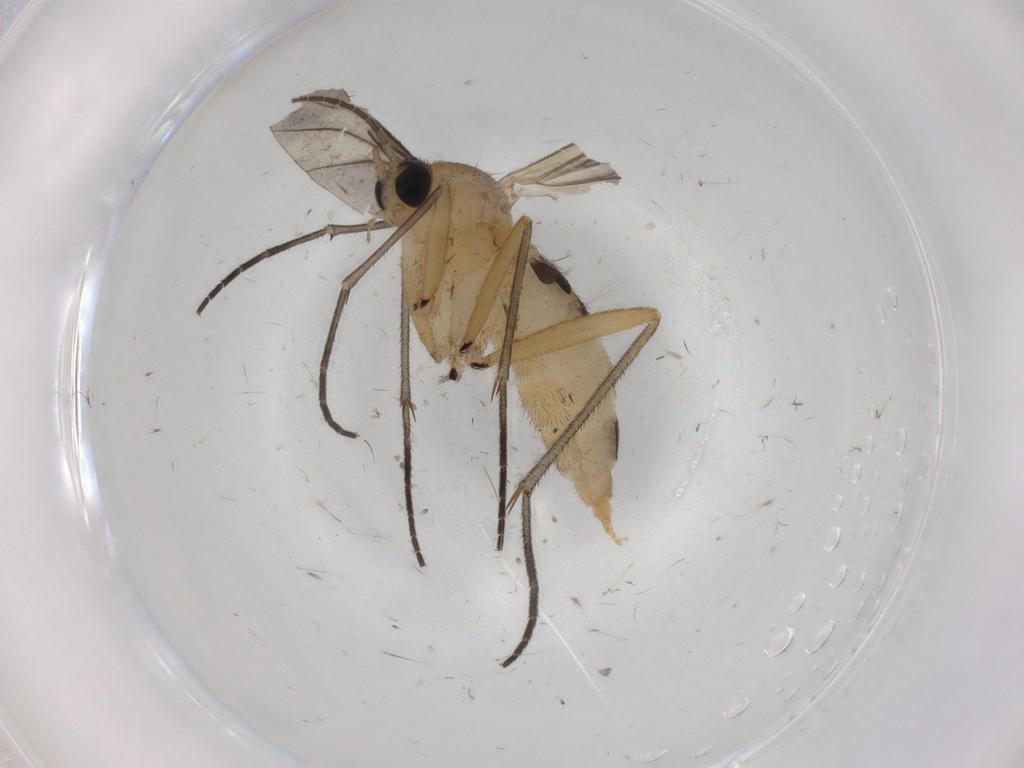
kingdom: Animalia
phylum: Arthropoda
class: Insecta
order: Diptera
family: Sciaridae
